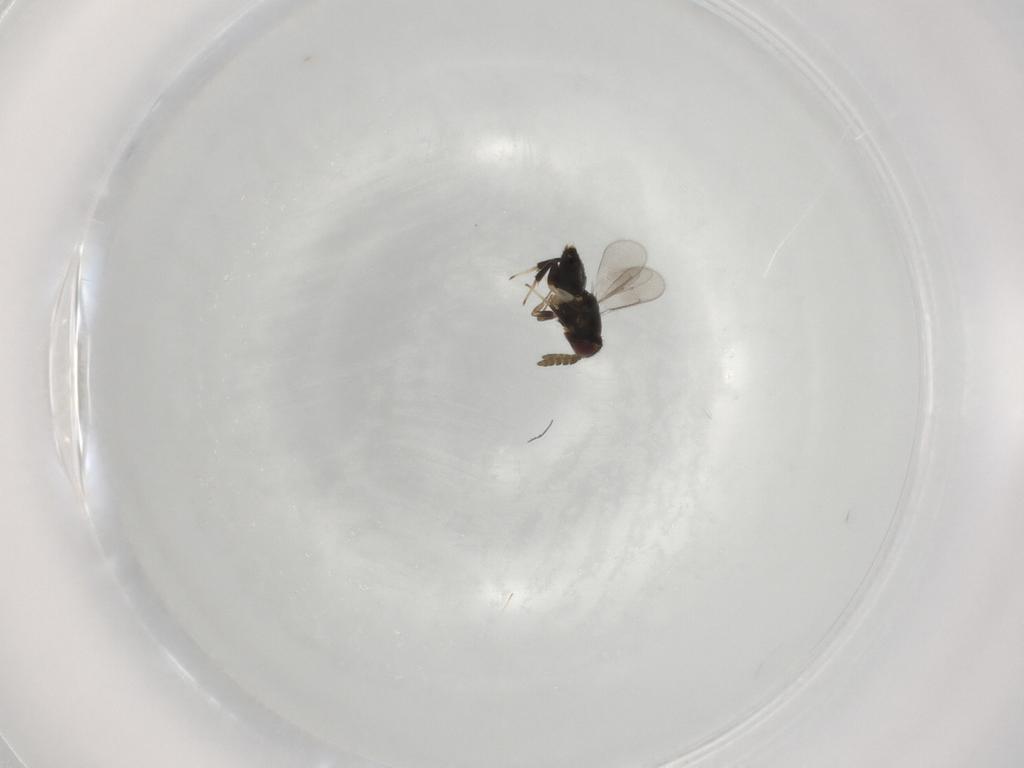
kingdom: Animalia
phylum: Arthropoda
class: Insecta
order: Hymenoptera
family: Aphelinidae
